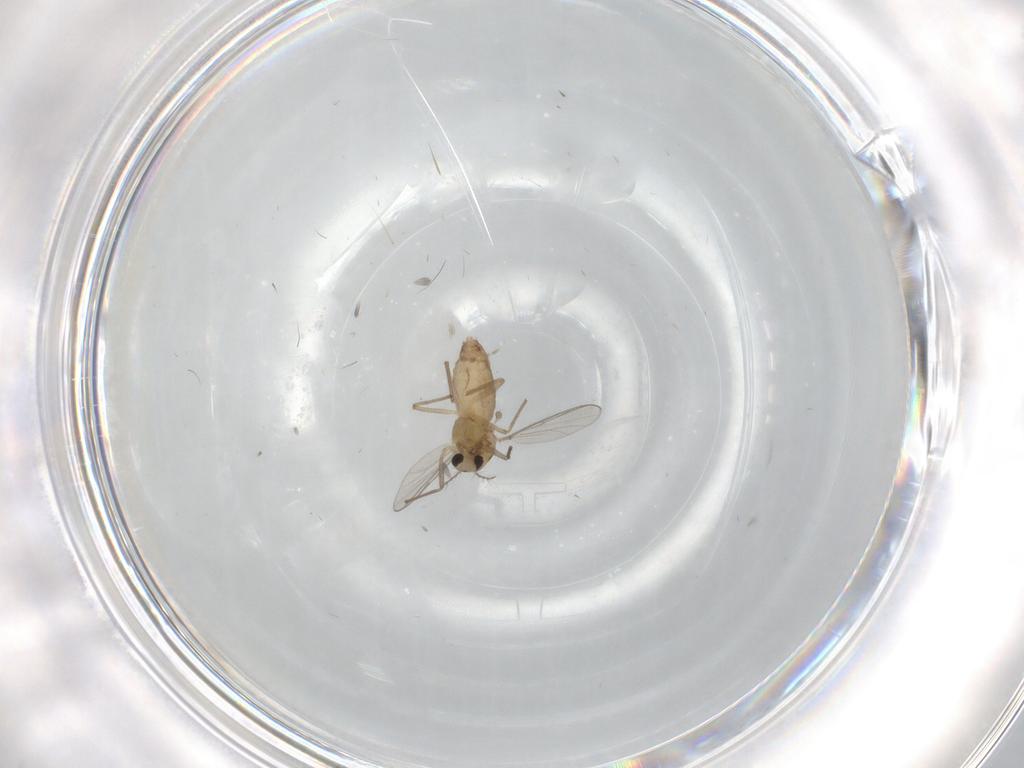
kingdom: Animalia
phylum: Arthropoda
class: Insecta
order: Diptera
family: Chironomidae
